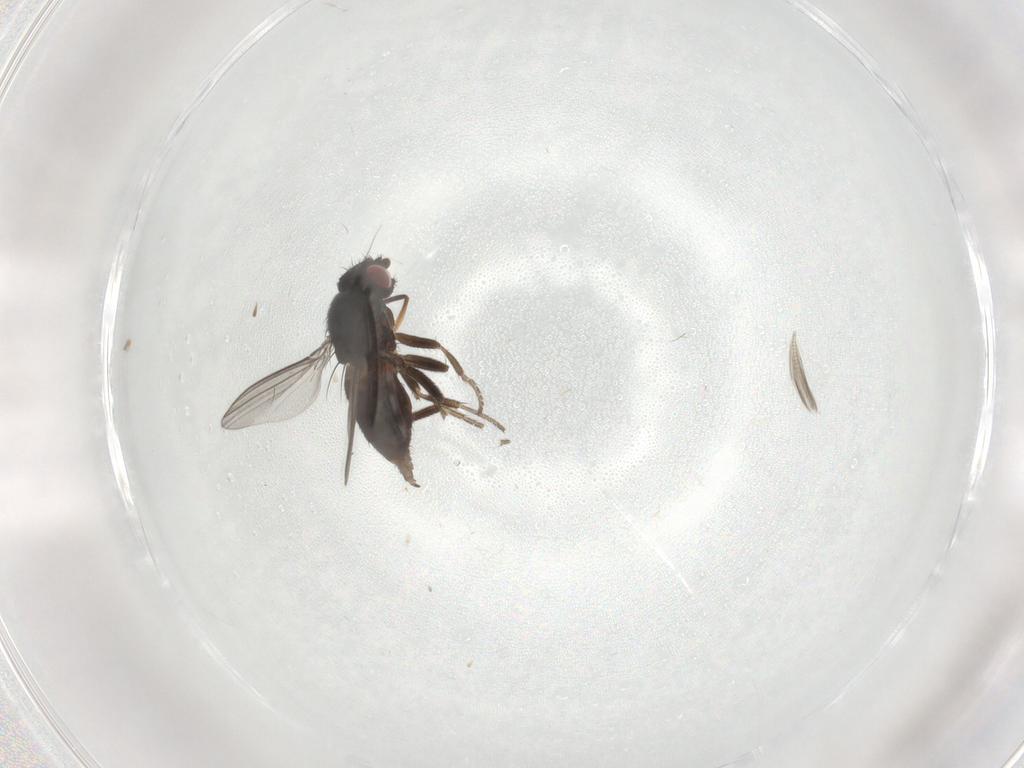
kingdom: Animalia
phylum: Arthropoda
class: Insecta
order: Diptera
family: Milichiidae
